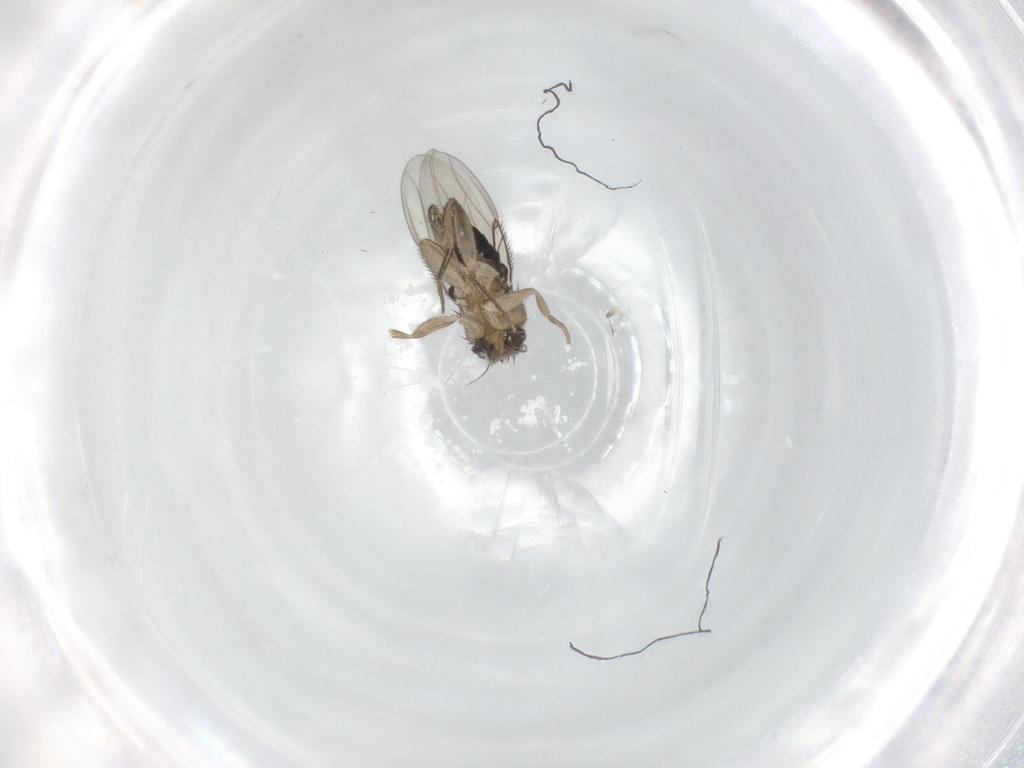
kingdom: Animalia
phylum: Arthropoda
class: Insecta
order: Diptera
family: Phoridae
